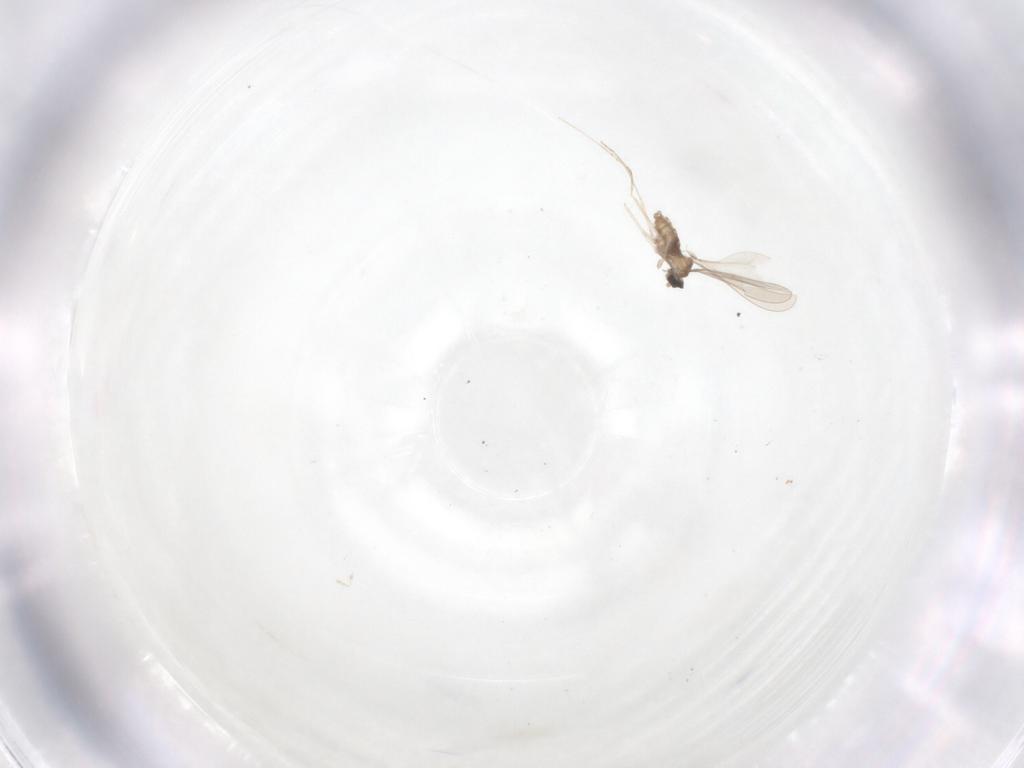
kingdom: Animalia
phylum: Arthropoda
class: Insecta
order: Diptera
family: Cecidomyiidae
